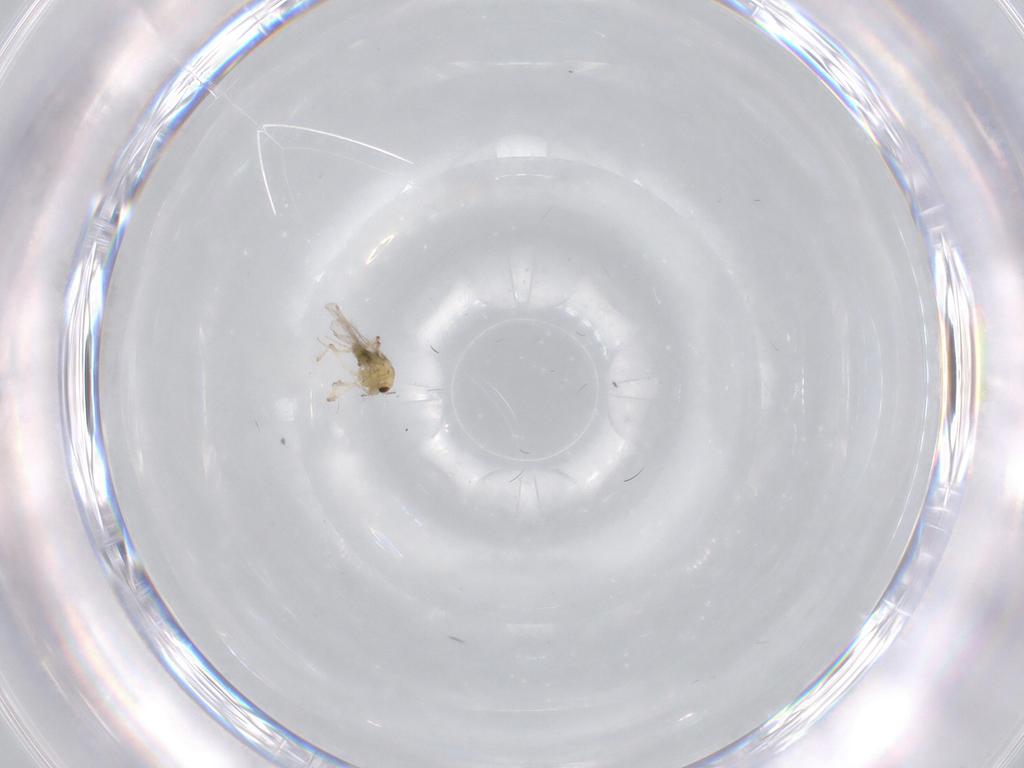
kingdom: Animalia
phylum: Arthropoda
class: Insecta
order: Diptera
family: Chironomidae
